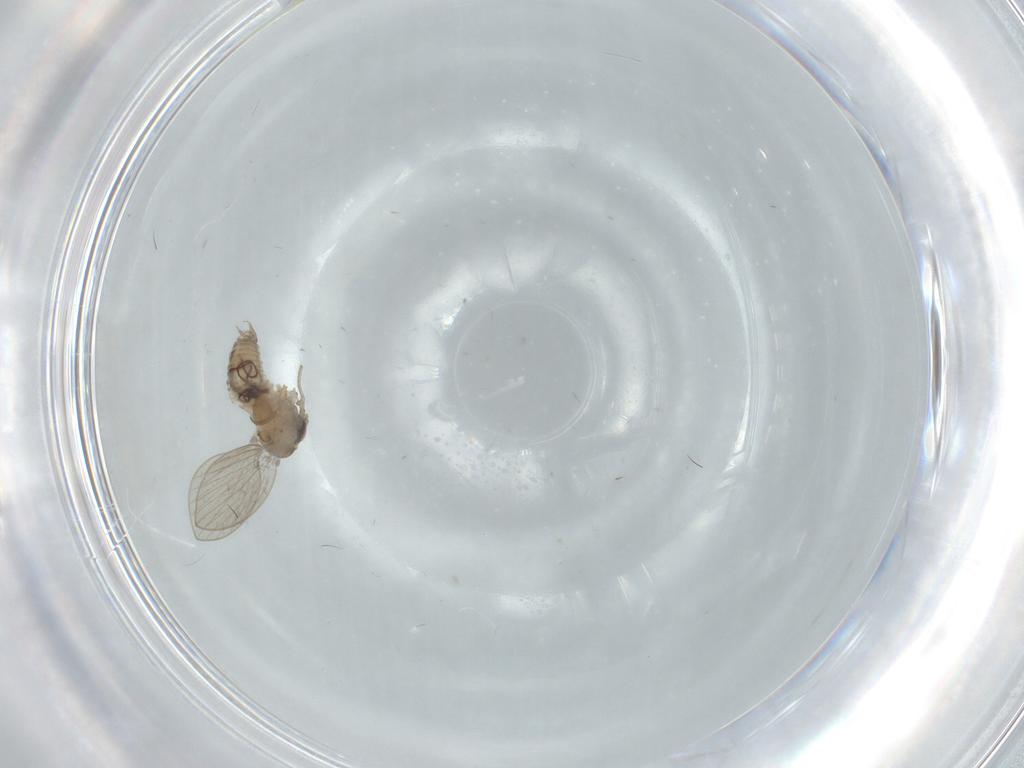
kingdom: Animalia
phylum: Arthropoda
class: Insecta
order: Diptera
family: Psychodidae
